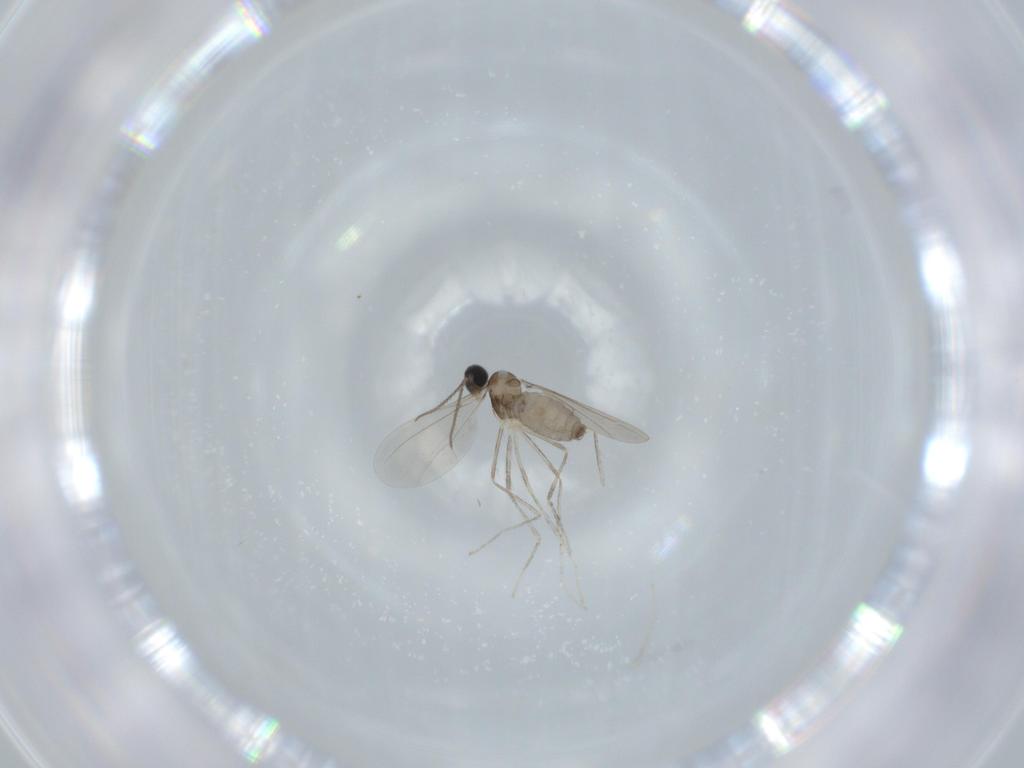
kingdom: Animalia
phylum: Arthropoda
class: Insecta
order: Diptera
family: Cecidomyiidae
